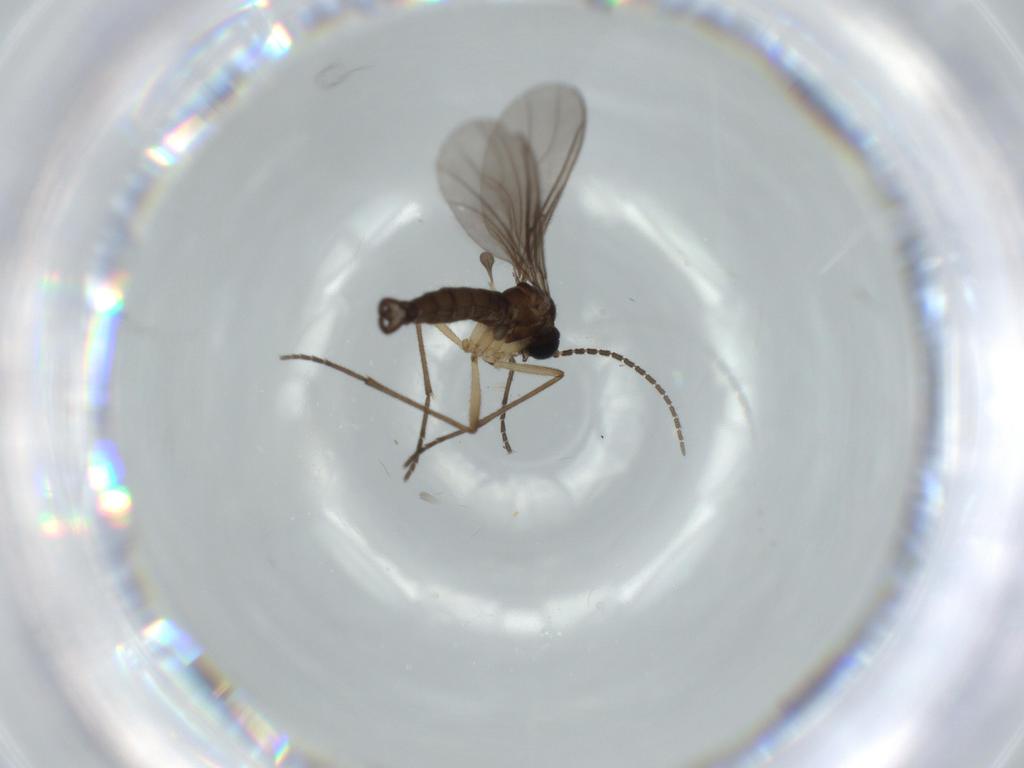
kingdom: Animalia
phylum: Arthropoda
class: Insecta
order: Diptera
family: Sciaridae
